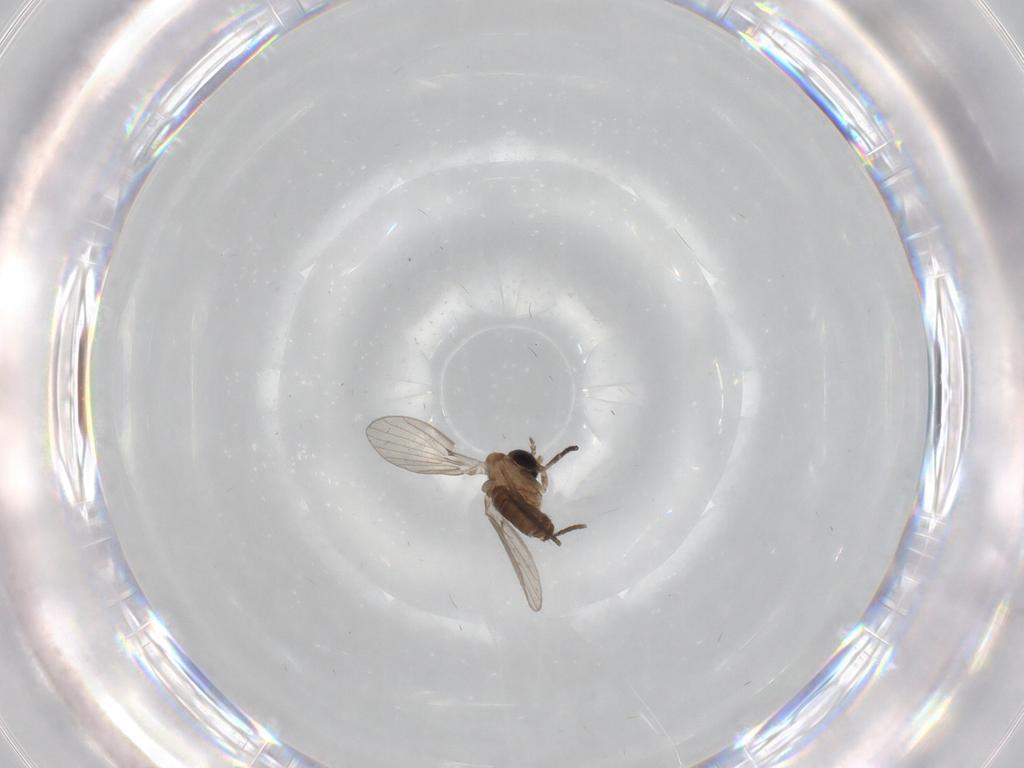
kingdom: Animalia
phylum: Arthropoda
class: Insecta
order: Diptera
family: Psychodidae
